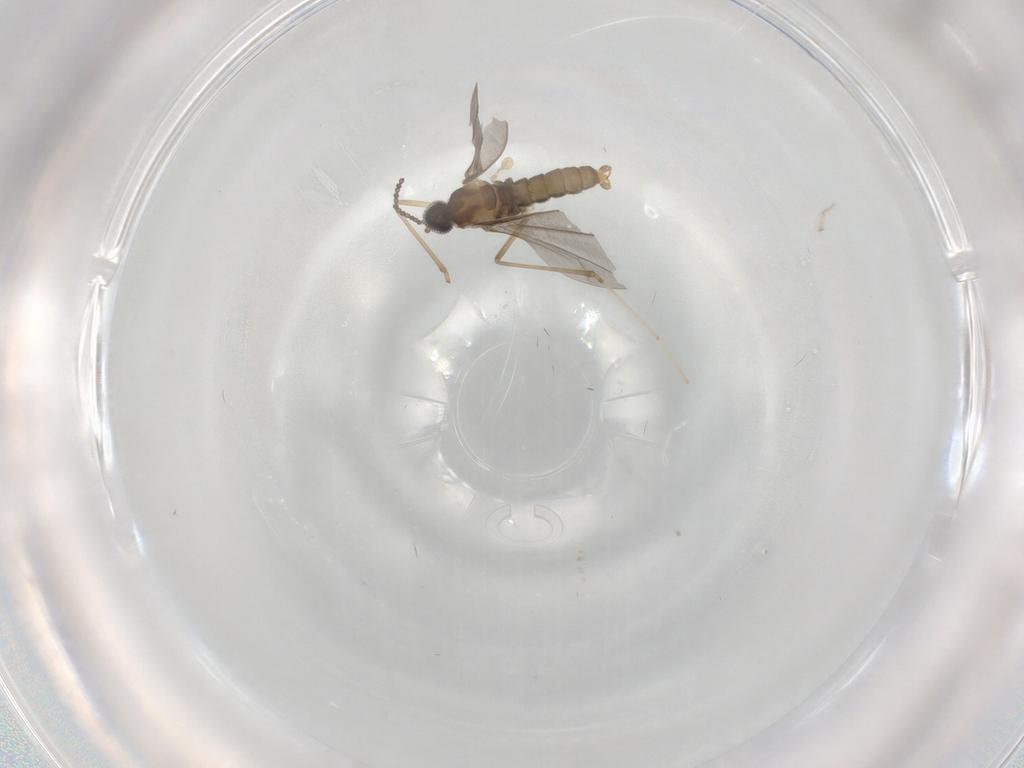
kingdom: Animalia
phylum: Arthropoda
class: Insecta
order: Diptera
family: Cecidomyiidae
